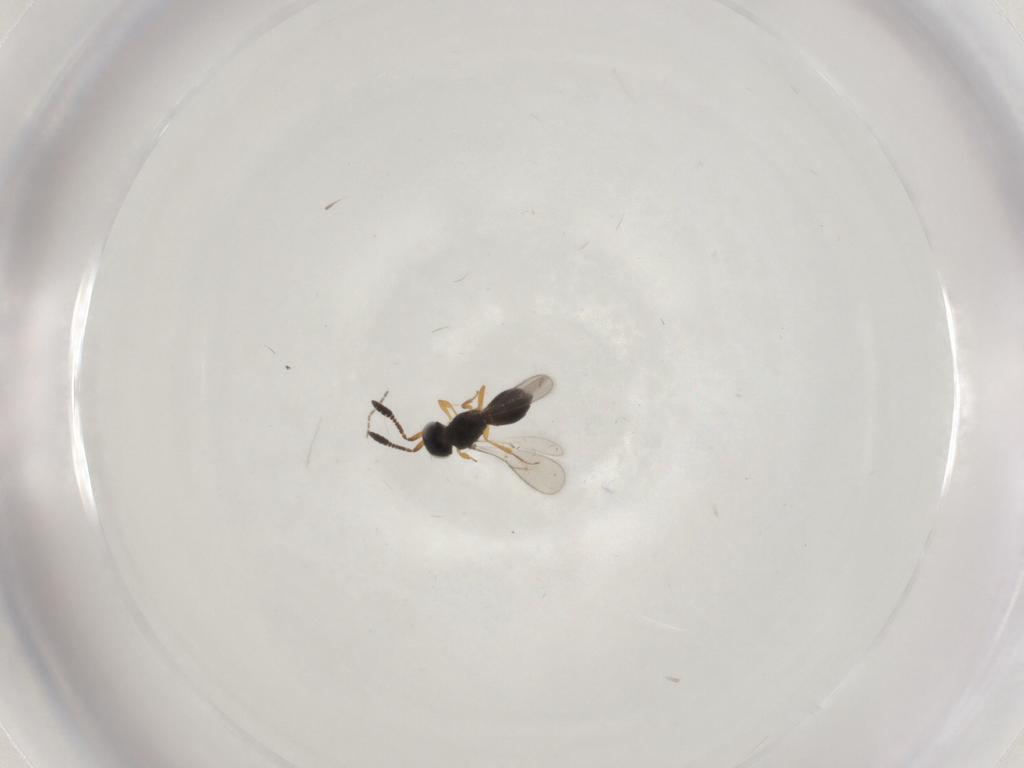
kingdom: Animalia
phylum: Arthropoda
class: Insecta
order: Hymenoptera
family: Scelionidae
